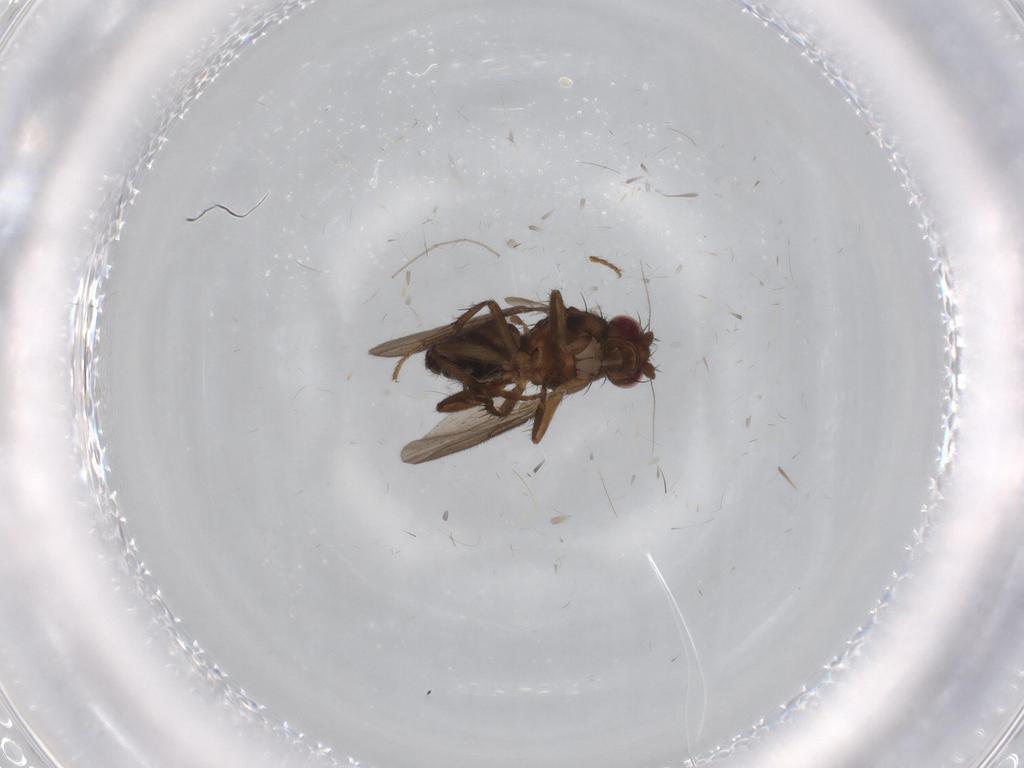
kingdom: Animalia
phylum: Arthropoda
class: Insecta
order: Diptera
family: Sphaeroceridae
